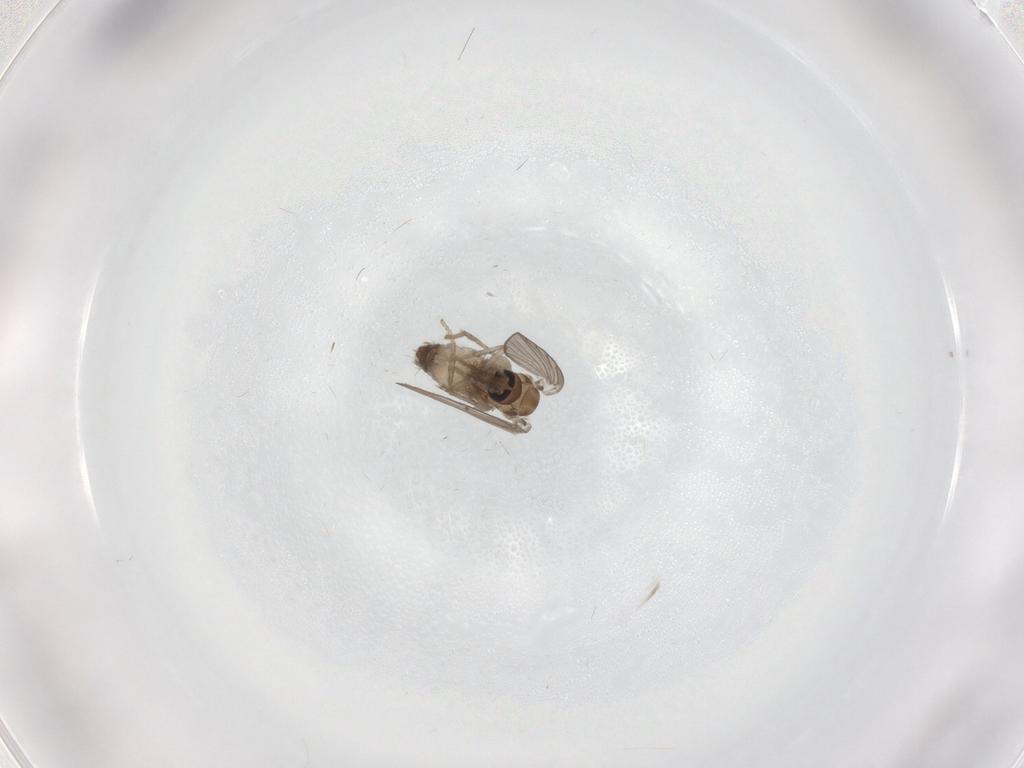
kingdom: Animalia
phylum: Arthropoda
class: Insecta
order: Diptera
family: Psychodidae
